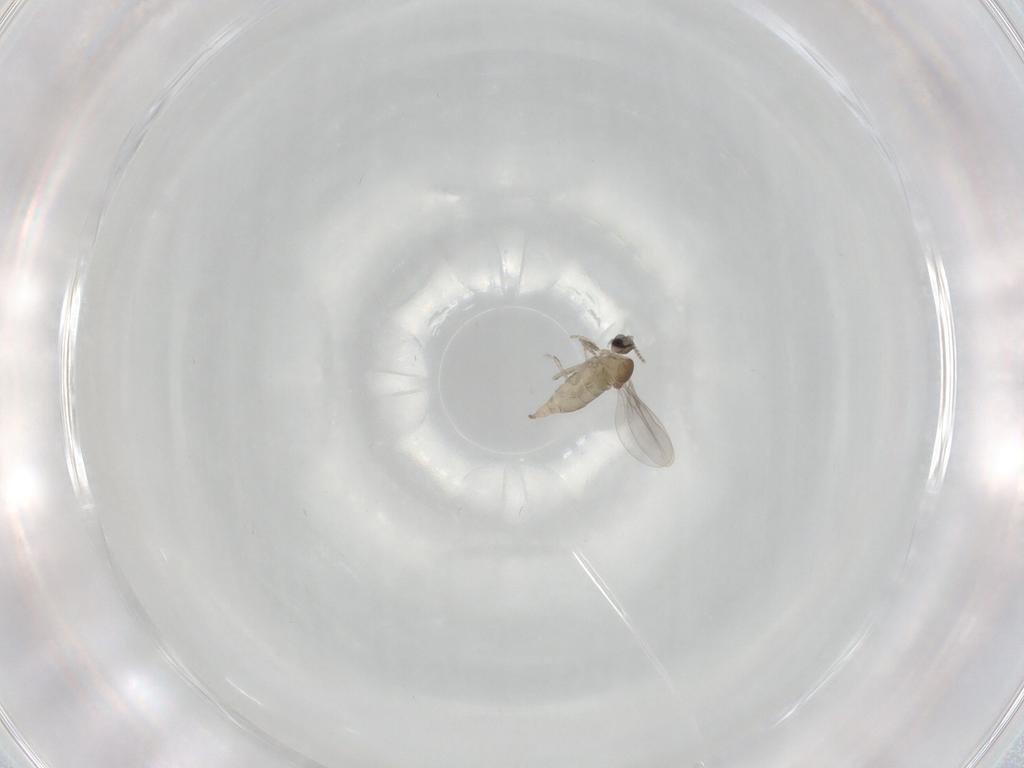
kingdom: Animalia
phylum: Arthropoda
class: Insecta
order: Diptera
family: Cecidomyiidae
